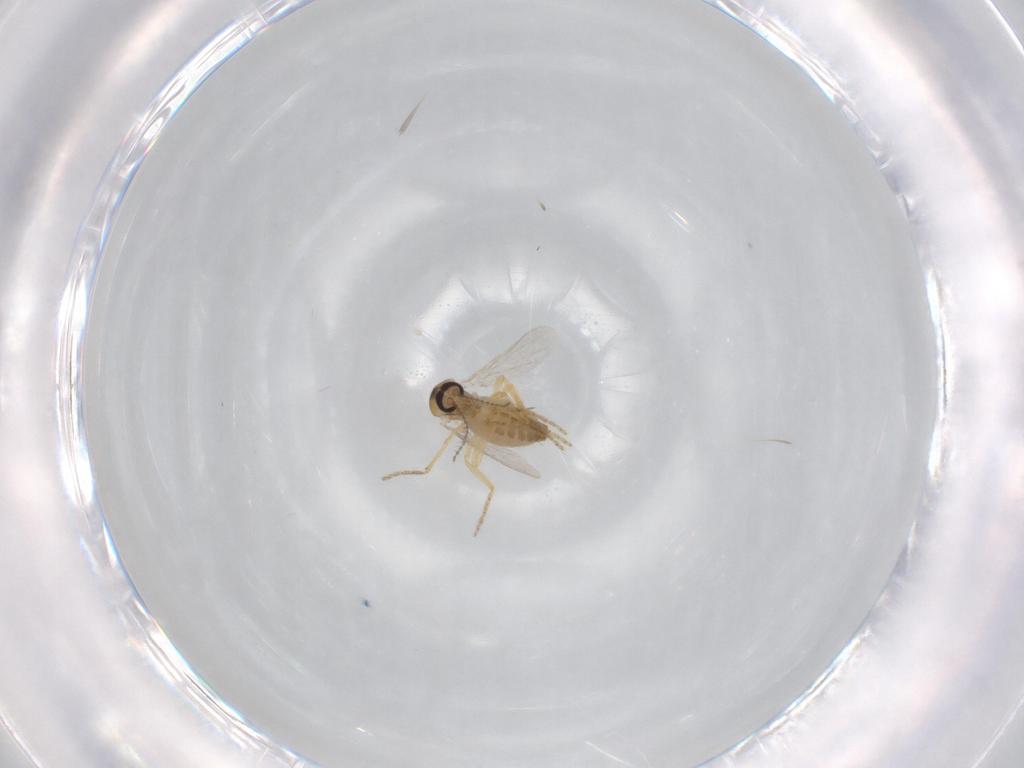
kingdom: Animalia
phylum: Arthropoda
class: Insecta
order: Diptera
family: Ceratopogonidae
